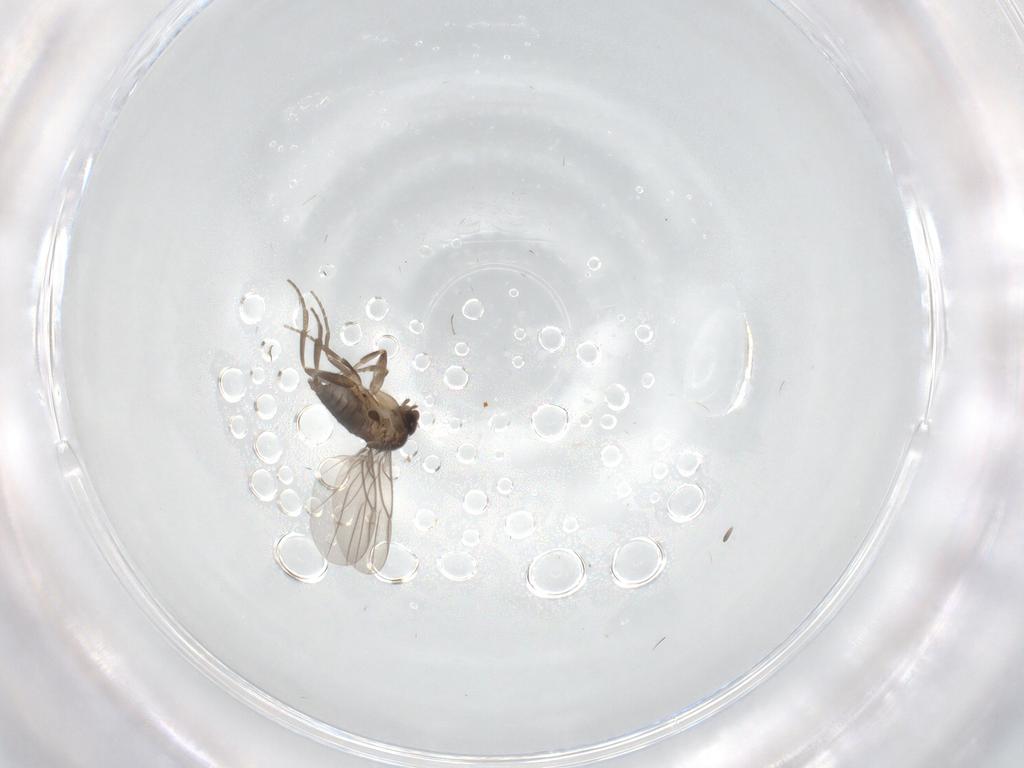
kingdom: Animalia
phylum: Arthropoda
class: Insecta
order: Diptera
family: Phoridae
